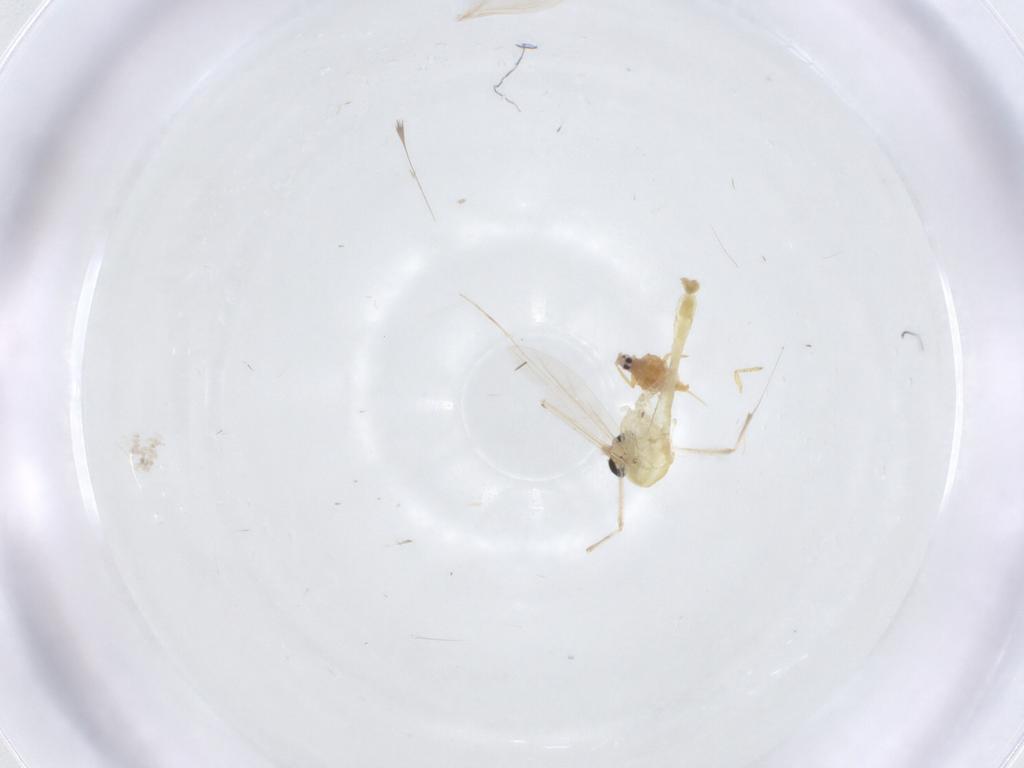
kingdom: Animalia
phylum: Arthropoda
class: Insecta
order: Diptera
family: Chironomidae
